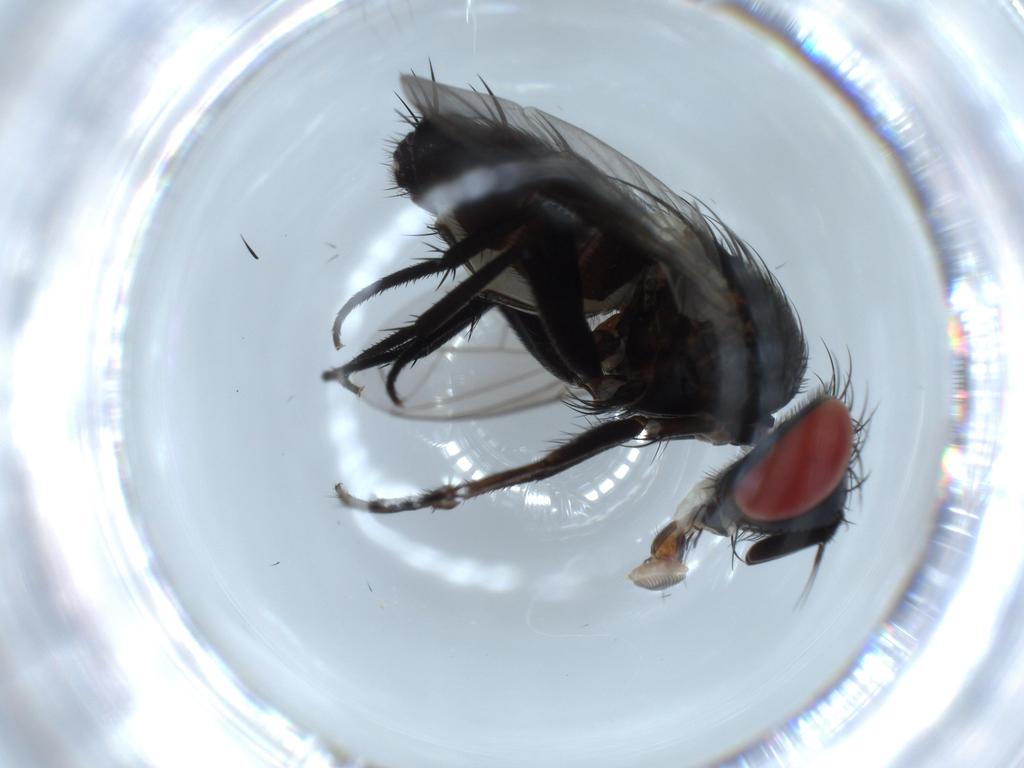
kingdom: Animalia
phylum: Arthropoda
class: Insecta
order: Diptera
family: Sarcophagidae
